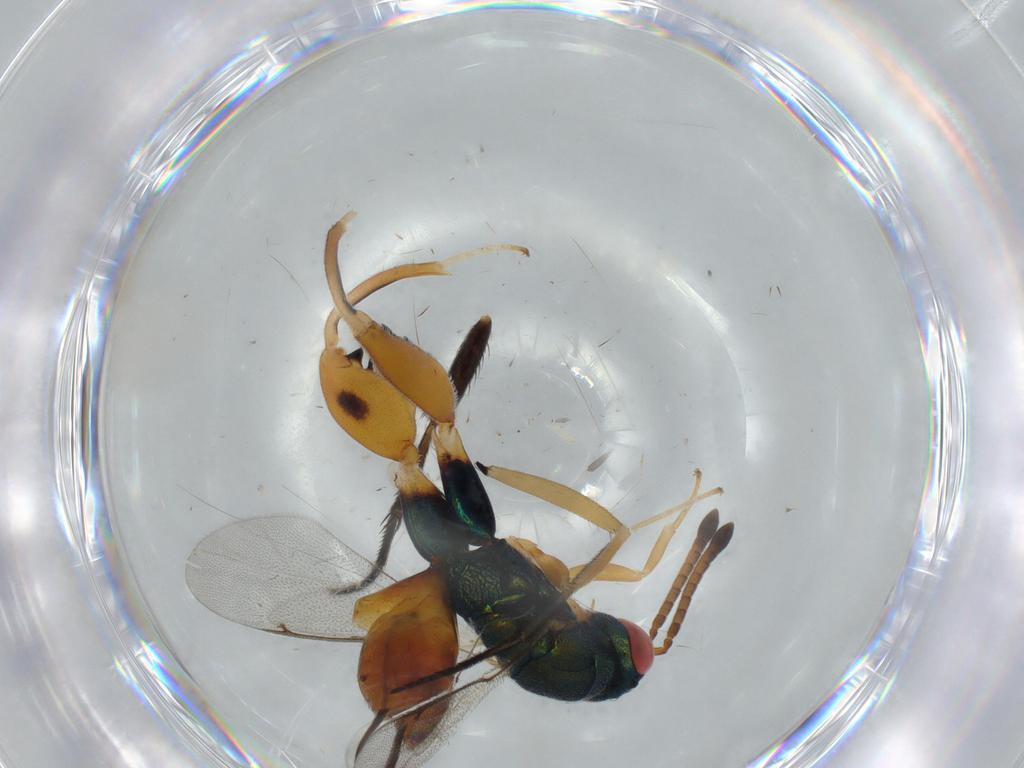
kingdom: Animalia
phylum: Arthropoda
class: Insecta
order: Hymenoptera
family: Torymidae
